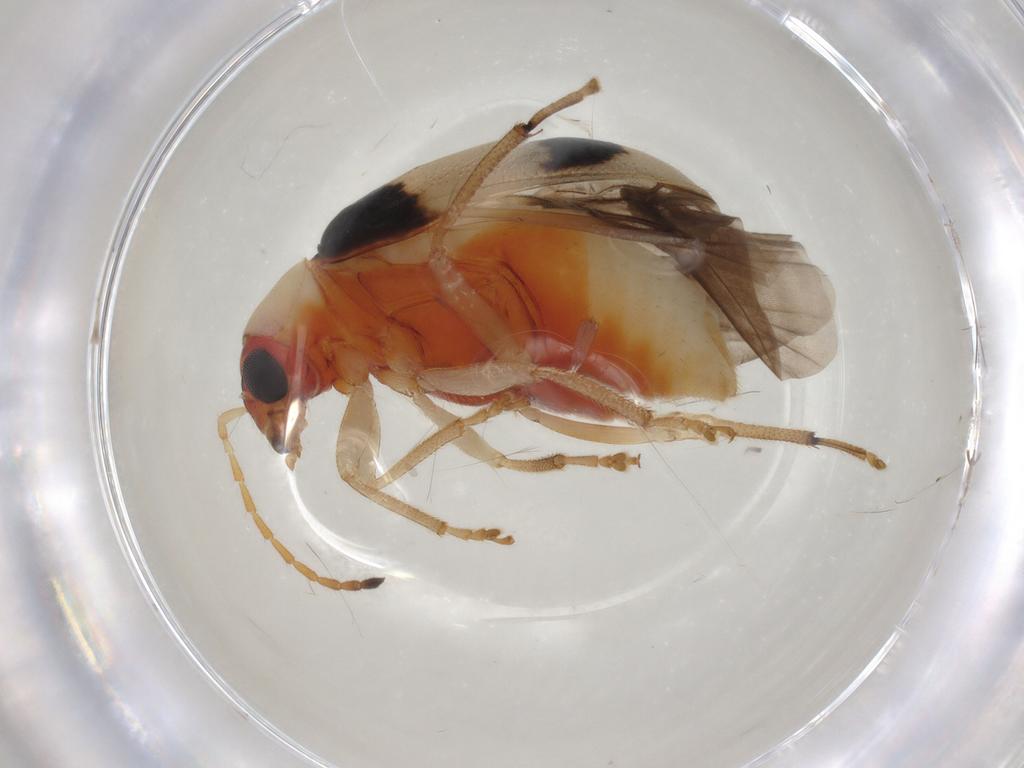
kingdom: Animalia
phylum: Arthropoda
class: Insecta
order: Coleoptera
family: Chrysomelidae
